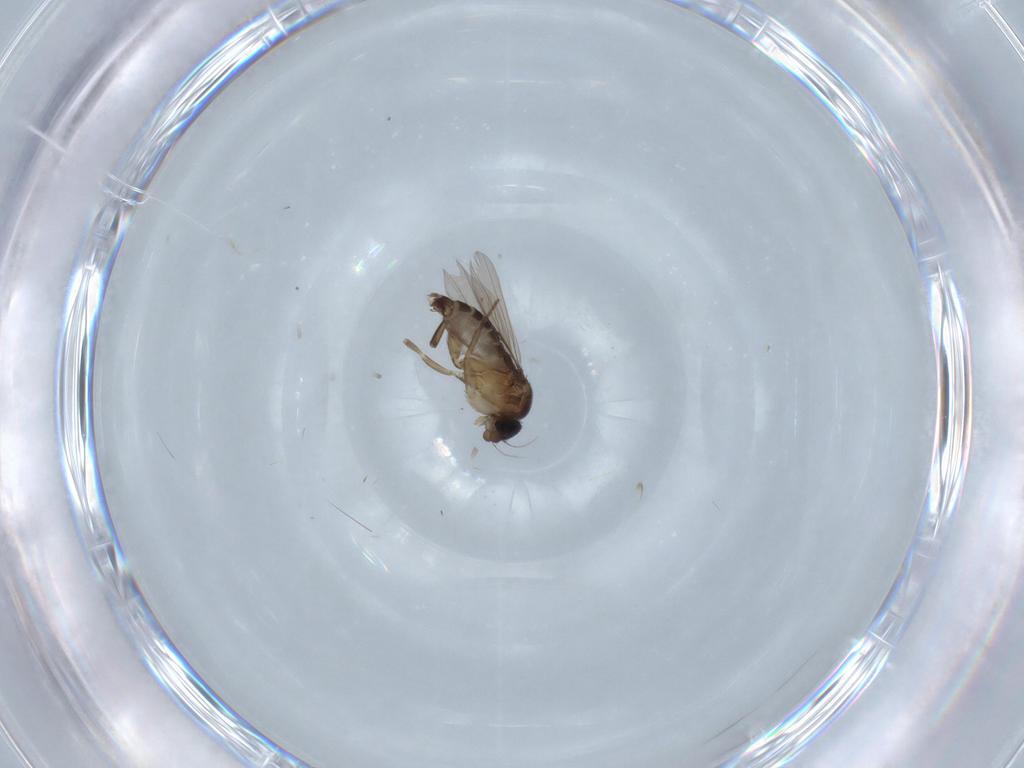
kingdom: Animalia
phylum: Arthropoda
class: Insecta
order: Diptera
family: Phoridae
